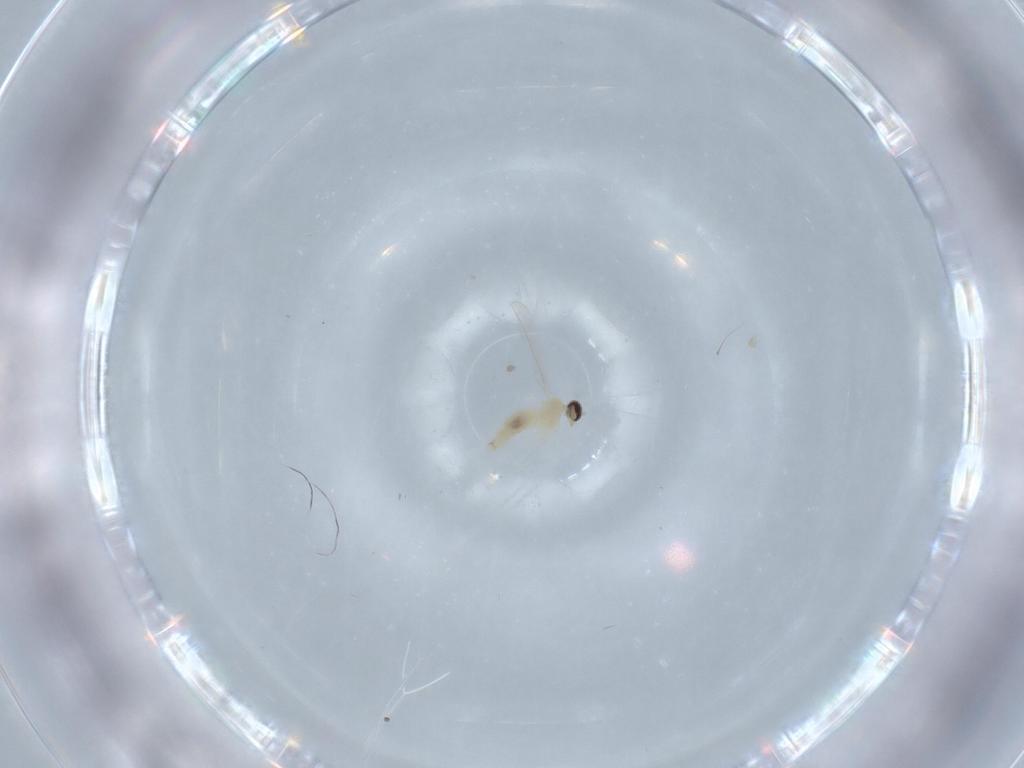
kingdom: Animalia
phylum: Arthropoda
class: Insecta
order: Diptera
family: Cecidomyiidae
